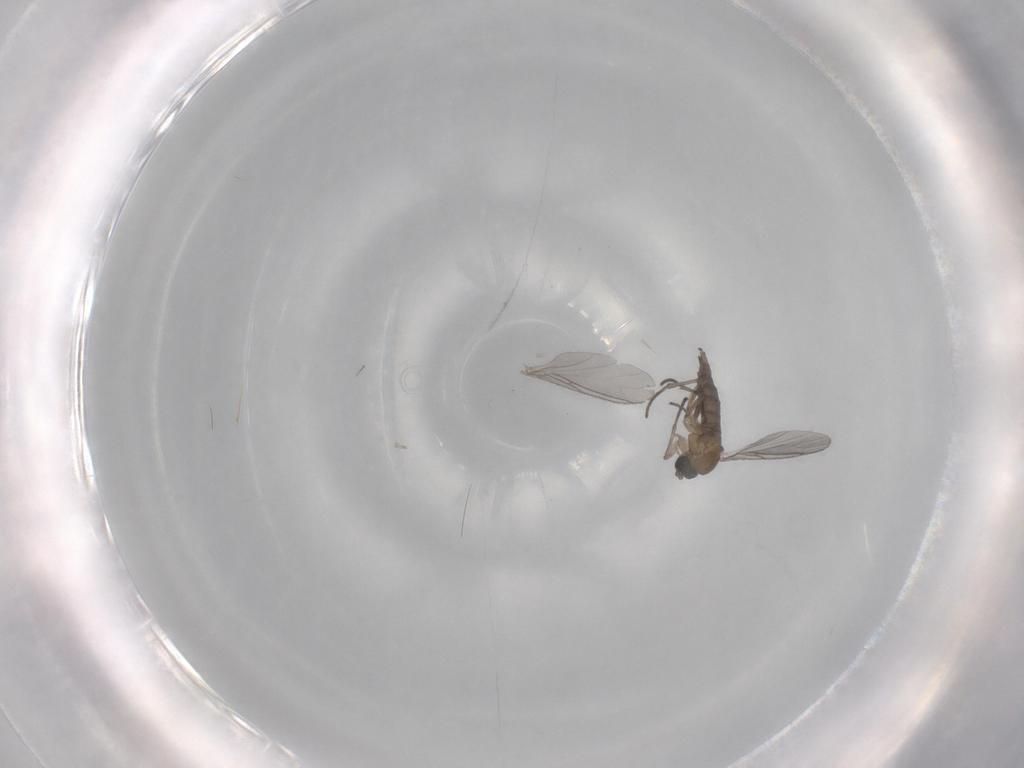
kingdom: Animalia
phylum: Arthropoda
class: Insecta
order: Diptera
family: Sciaridae
